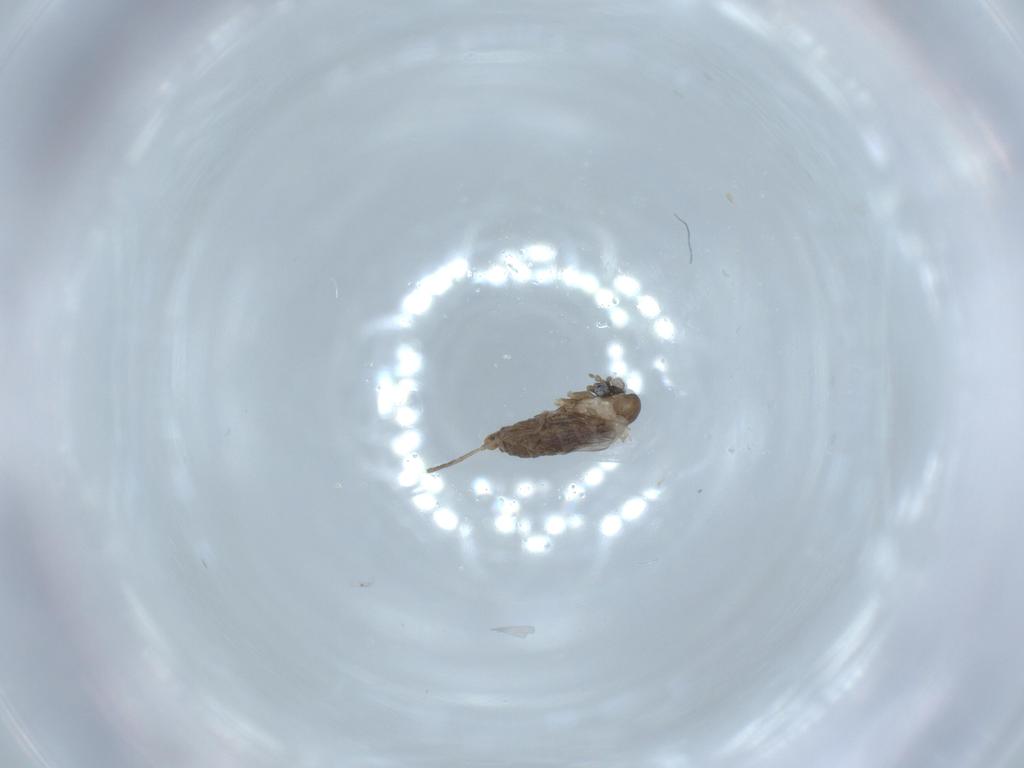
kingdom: Animalia
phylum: Arthropoda
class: Insecta
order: Diptera
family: Psychodidae
